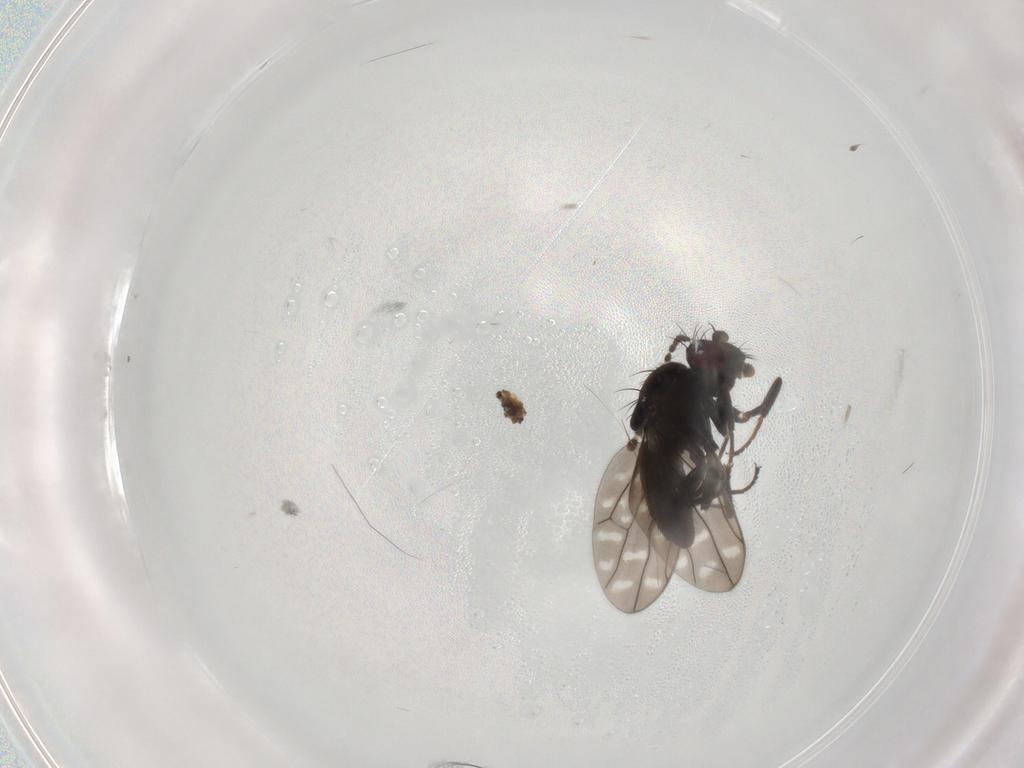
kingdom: Animalia
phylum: Arthropoda
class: Insecta
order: Diptera
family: Ephydridae
